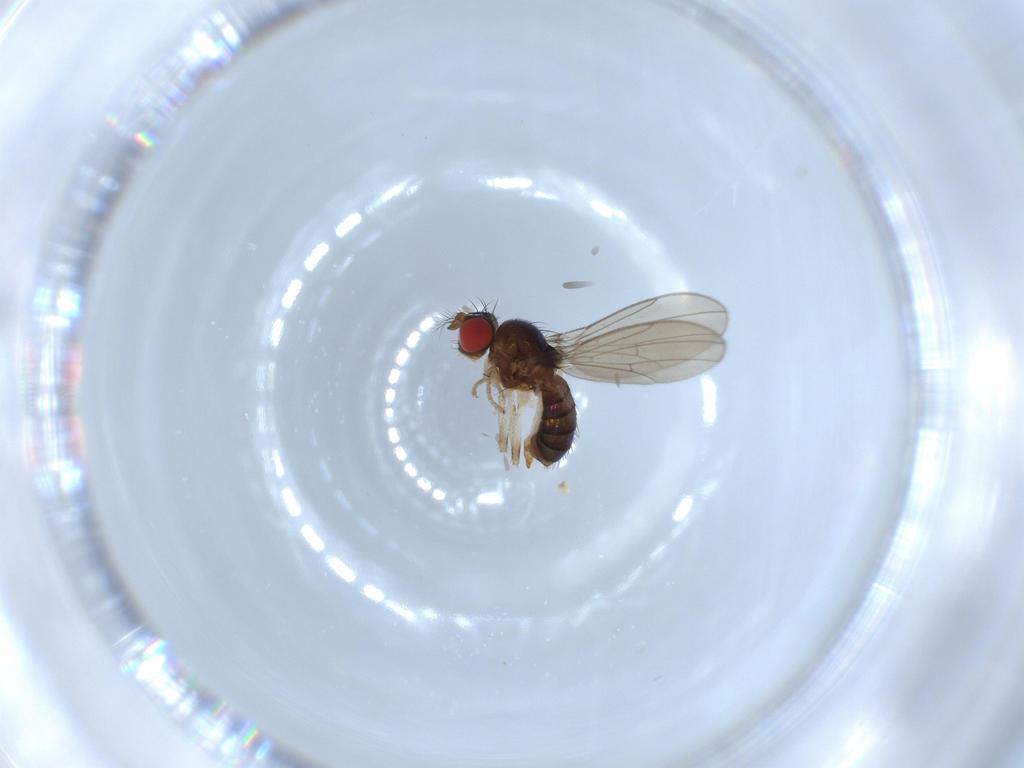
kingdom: Animalia
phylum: Arthropoda
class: Insecta
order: Diptera
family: Drosophilidae
